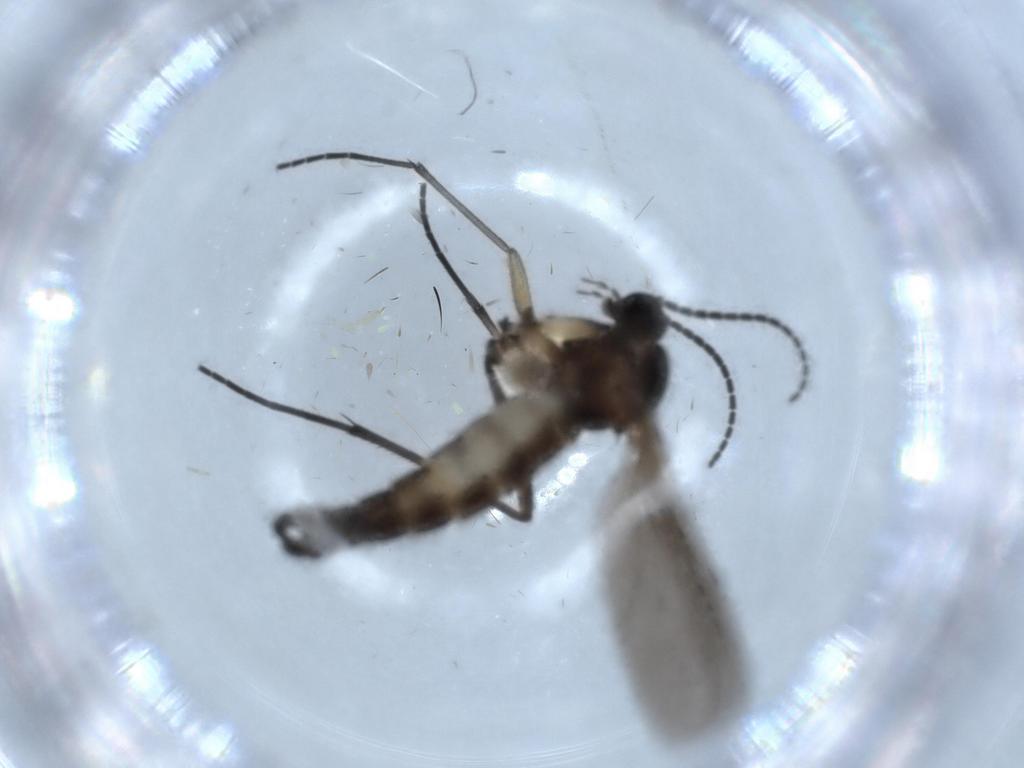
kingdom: Animalia
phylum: Arthropoda
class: Insecta
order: Diptera
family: Sciaridae
